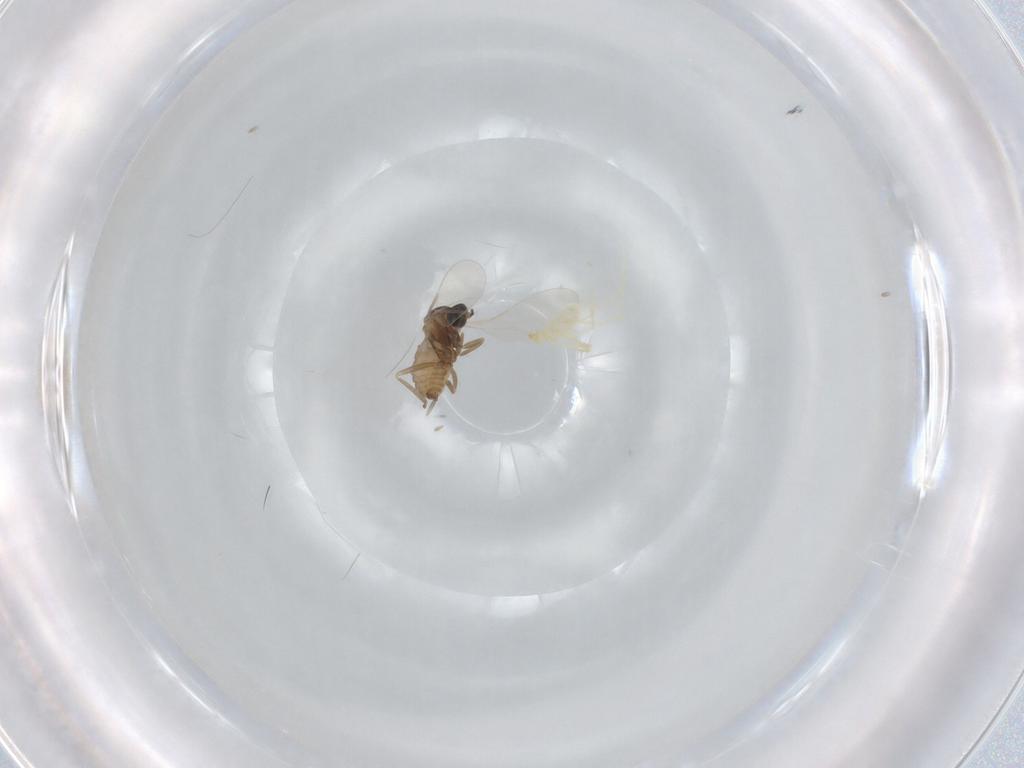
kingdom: Animalia
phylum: Arthropoda
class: Insecta
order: Diptera
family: Cecidomyiidae
